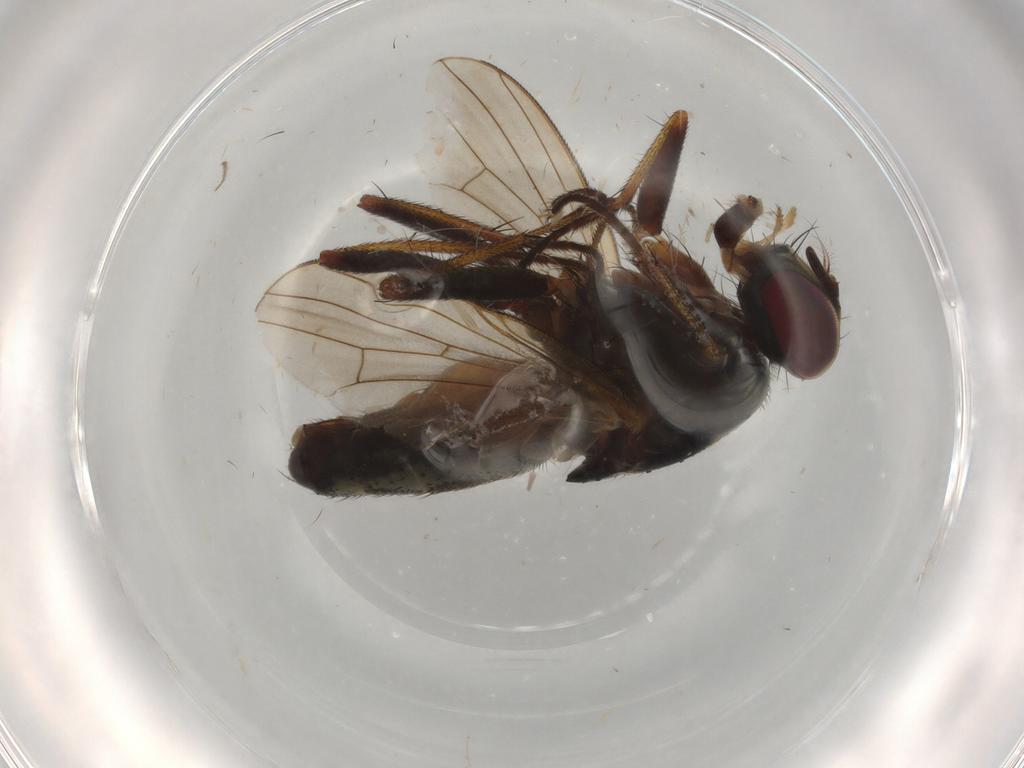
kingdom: Animalia
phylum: Arthropoda
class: Insecta
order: Diptera
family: Muscidae
